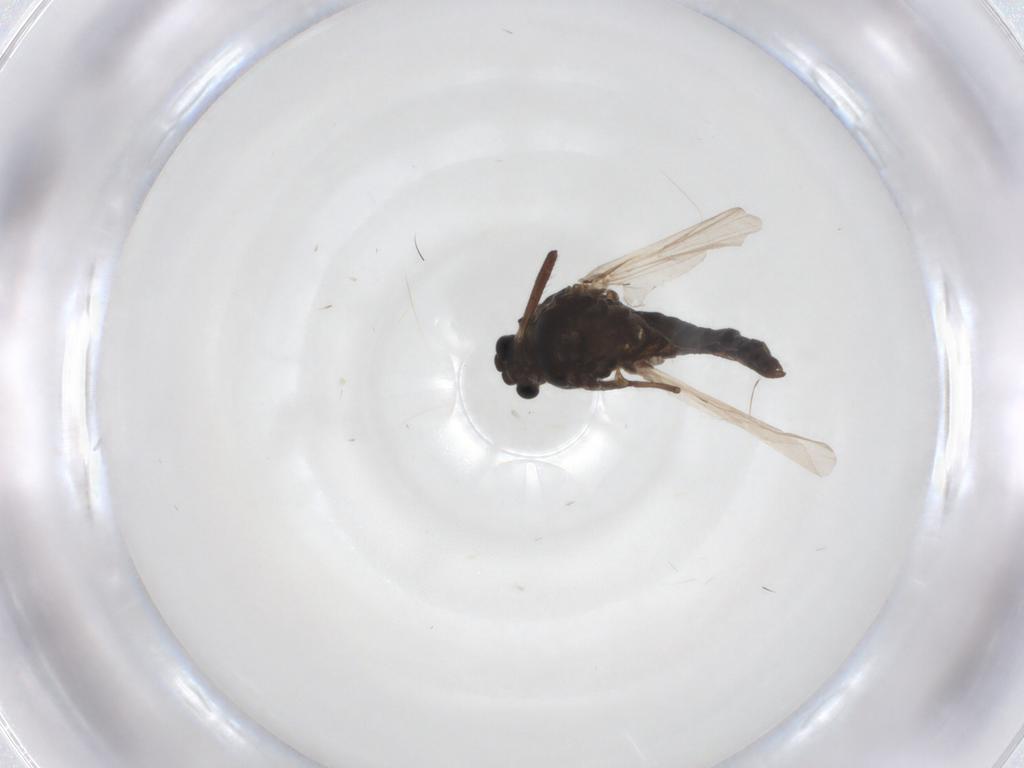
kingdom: Animalia
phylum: Arthropoda
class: Insecta
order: Diptera
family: Chironomidae
